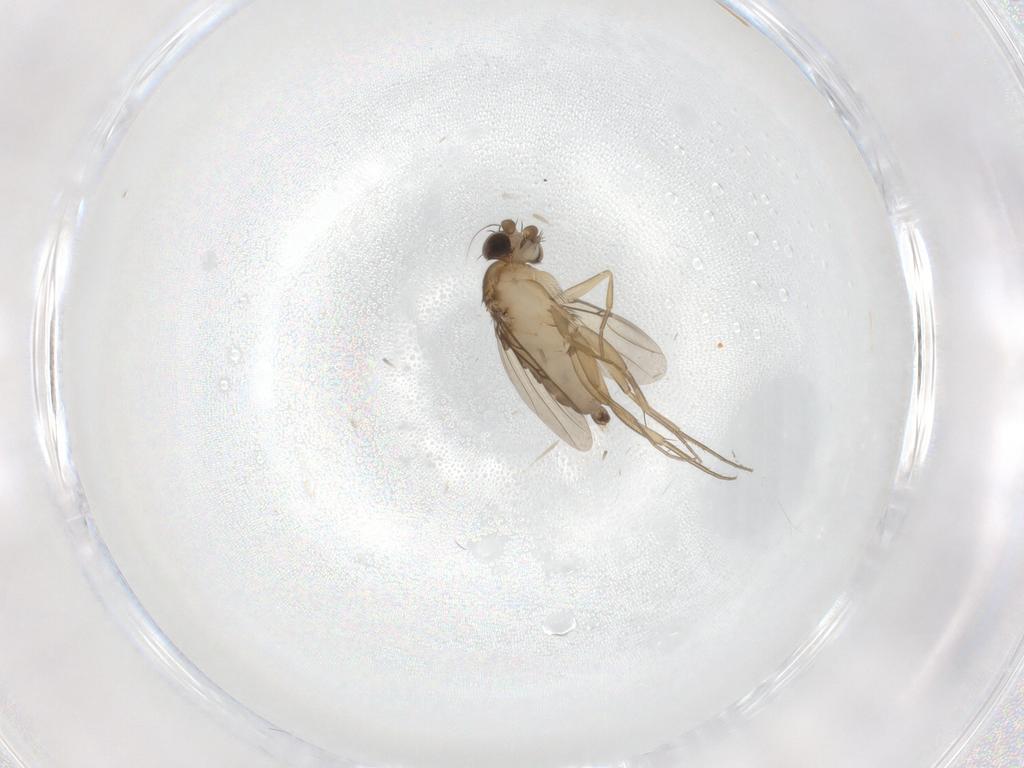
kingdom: Animalia
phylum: Arthropoda
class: Insecta
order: Diptera
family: Phoridae
